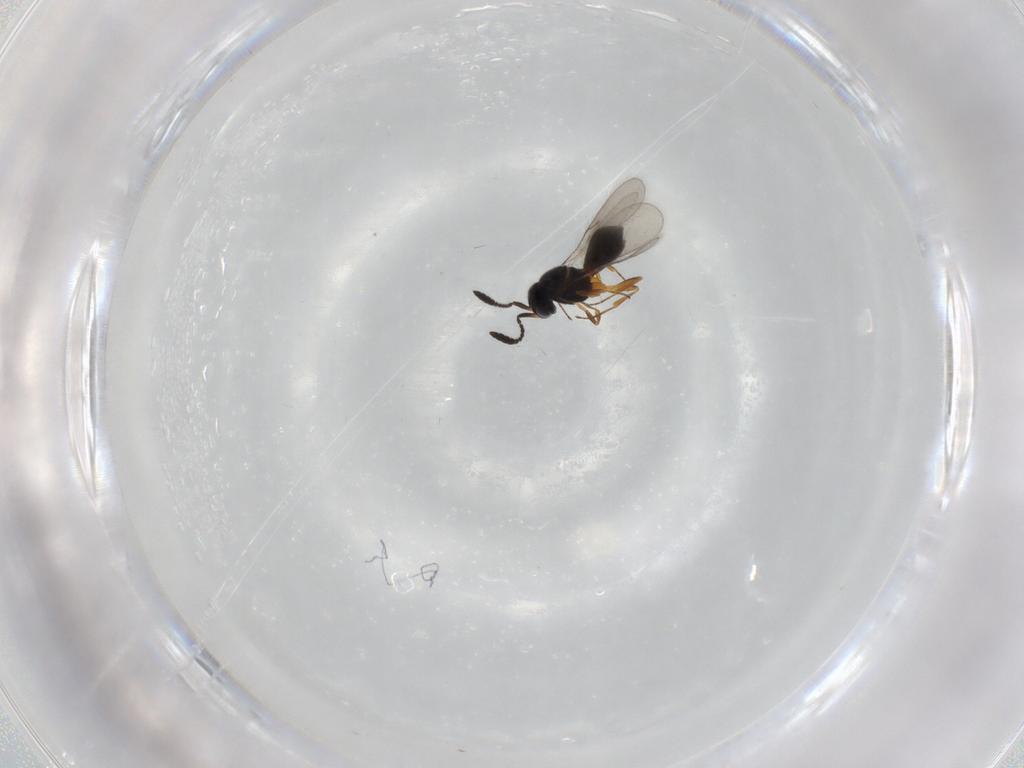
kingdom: Animalia
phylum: Arthropoda
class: Insecta
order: Hymenoptera
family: Scelionidae
